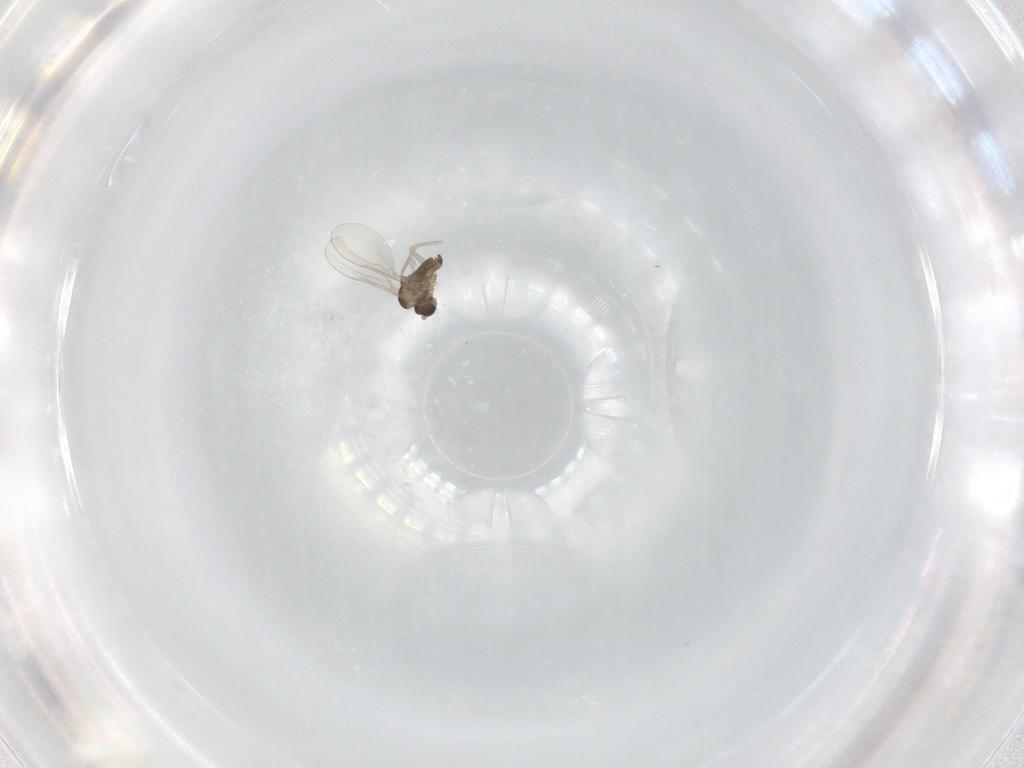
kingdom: Animalia
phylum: Arthropoda
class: Insecta
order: Diptera
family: Cecidomyiidae
